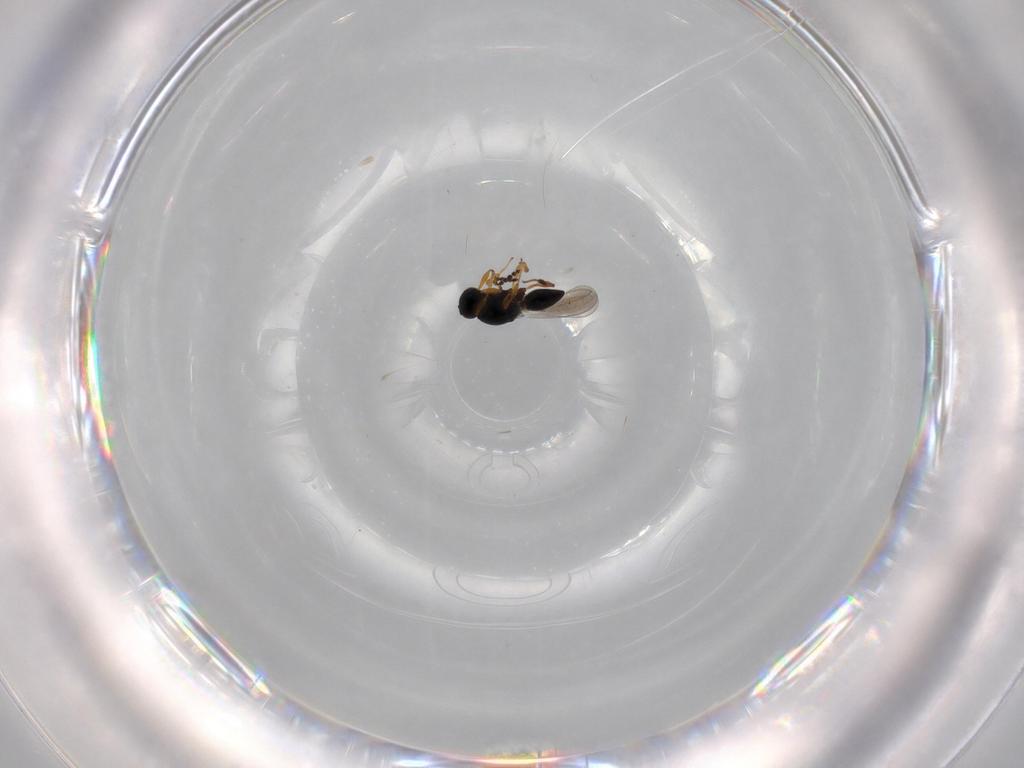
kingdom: Animalia
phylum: Arthropoda
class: Insecta
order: Hymenoptera
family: Platygastridae
